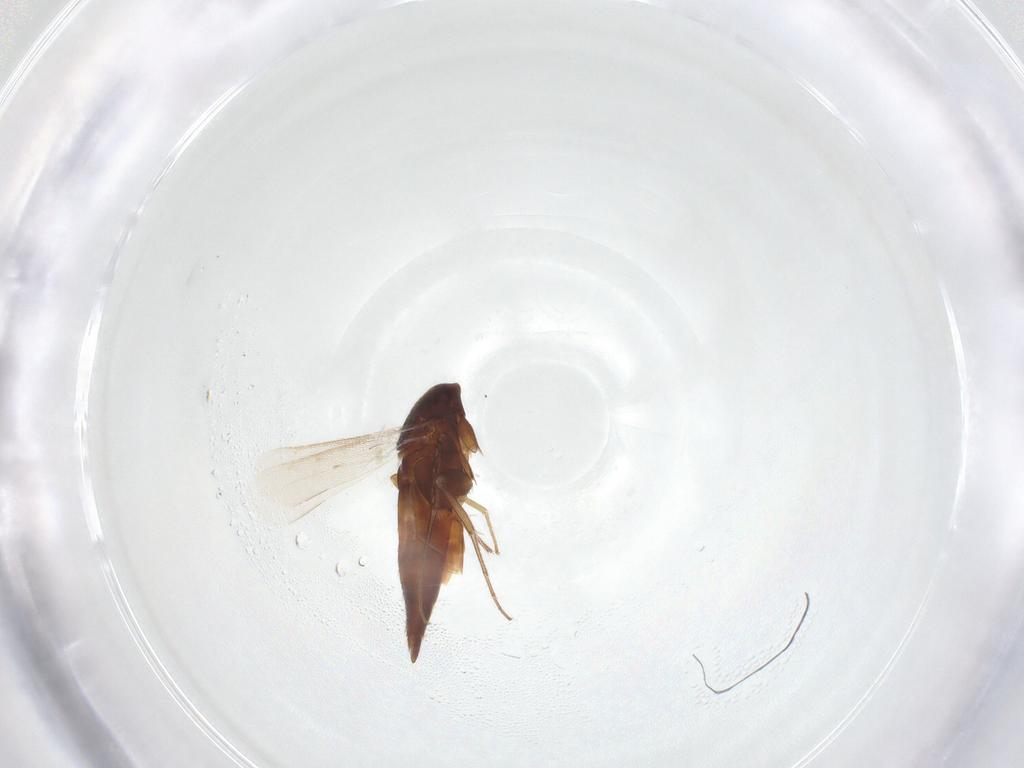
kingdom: Animalia
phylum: Arthropoda
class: Insecta
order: Hymenoptera
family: Eulophidae
